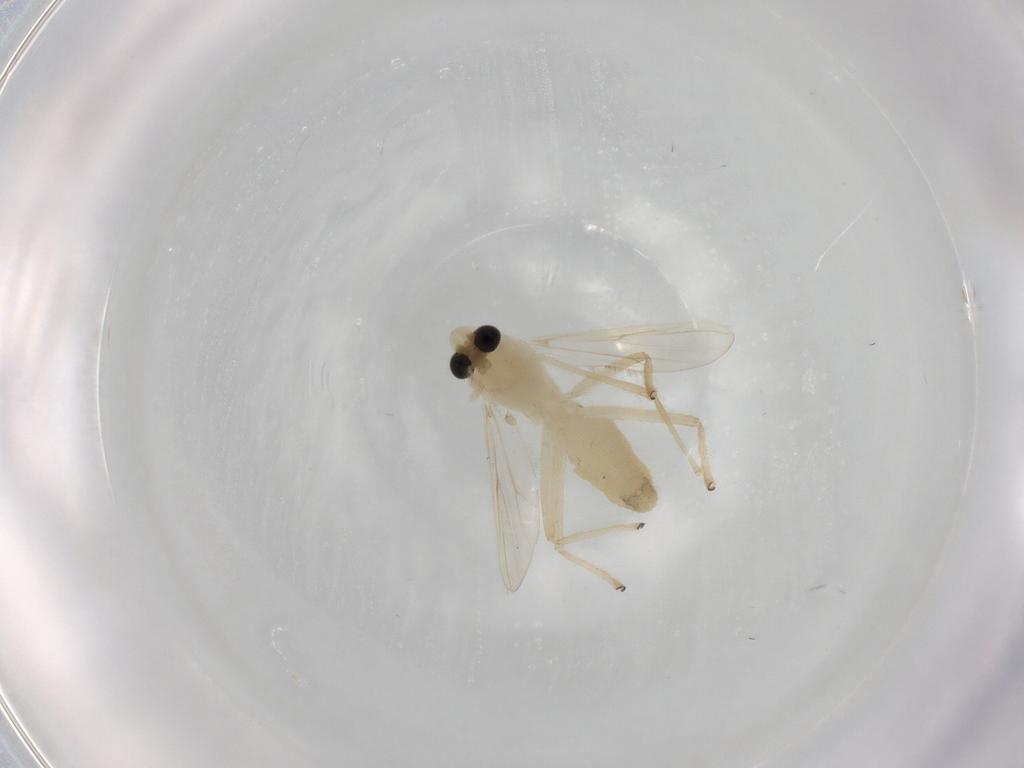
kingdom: Animalia
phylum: Arthropoda
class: Insecta
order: Diptera
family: Chironomidae
